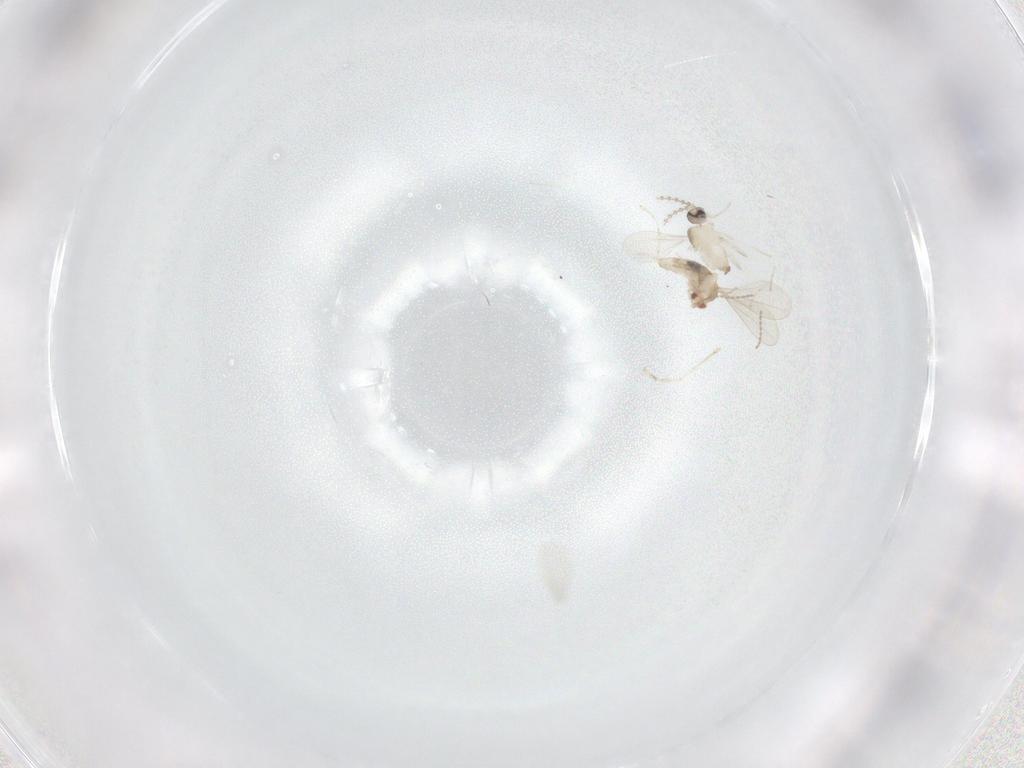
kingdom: Animalia
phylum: Arthropoda
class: Insecta
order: Diptera
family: Cecidomyiidae
